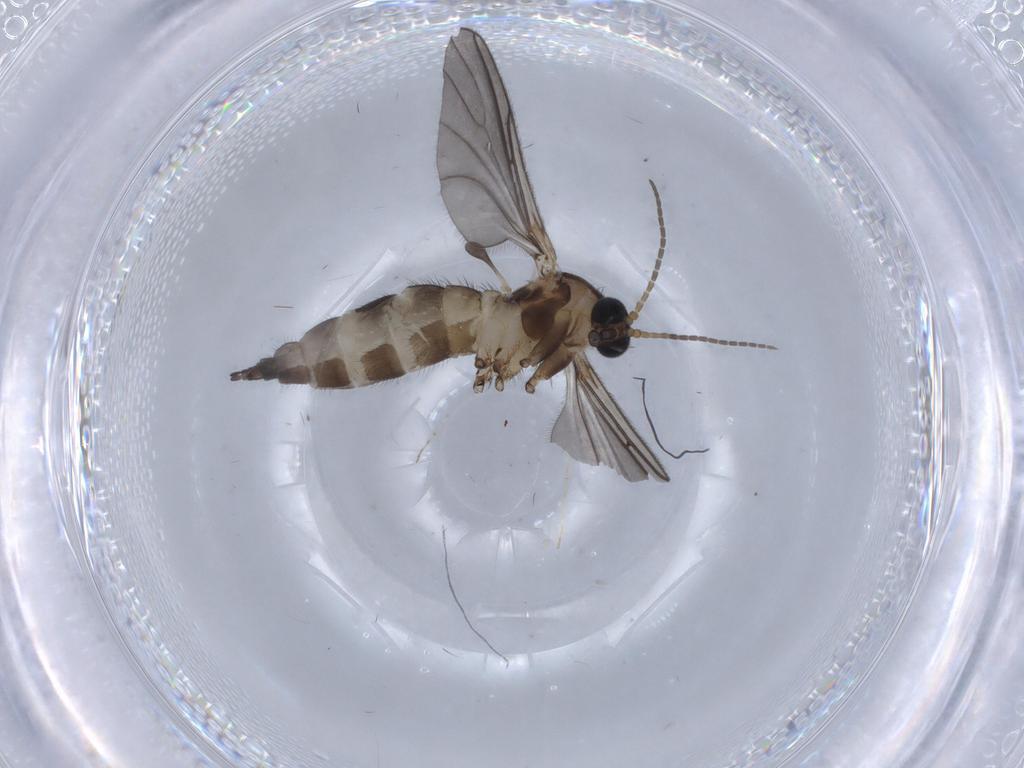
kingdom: Animalia
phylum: Arthropoda
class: Insecta
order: Diptera
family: Sciaridae
